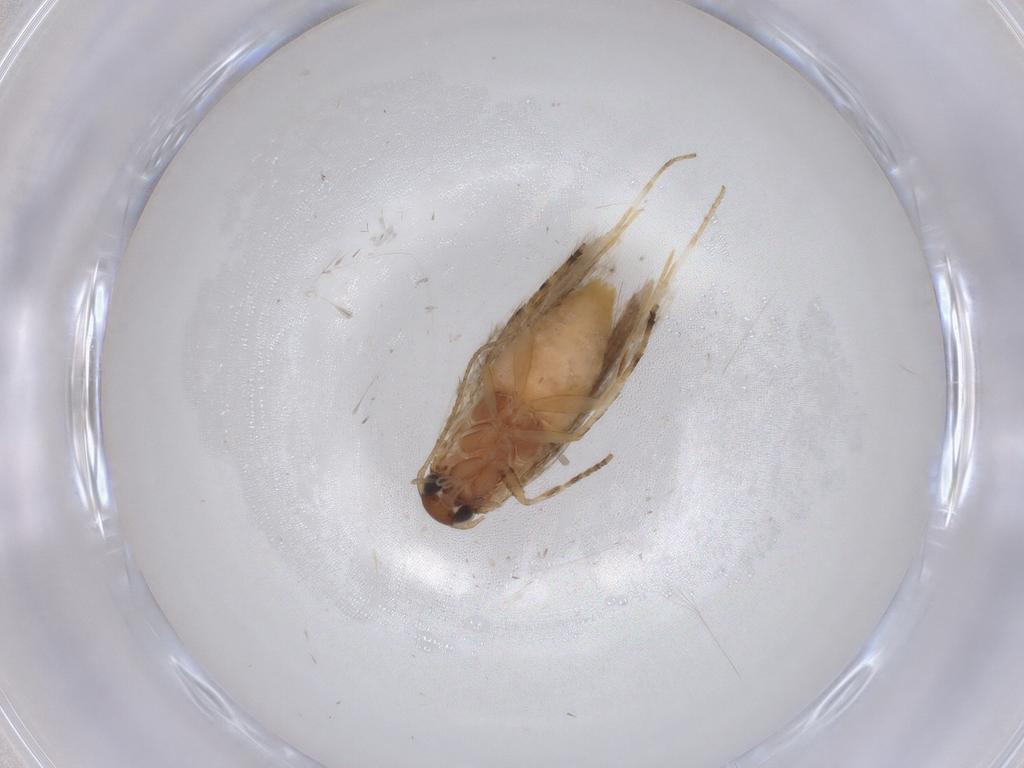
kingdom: Animalia
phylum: Arthropoda
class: Insecta
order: Lepidoptera
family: Gelechiidae
